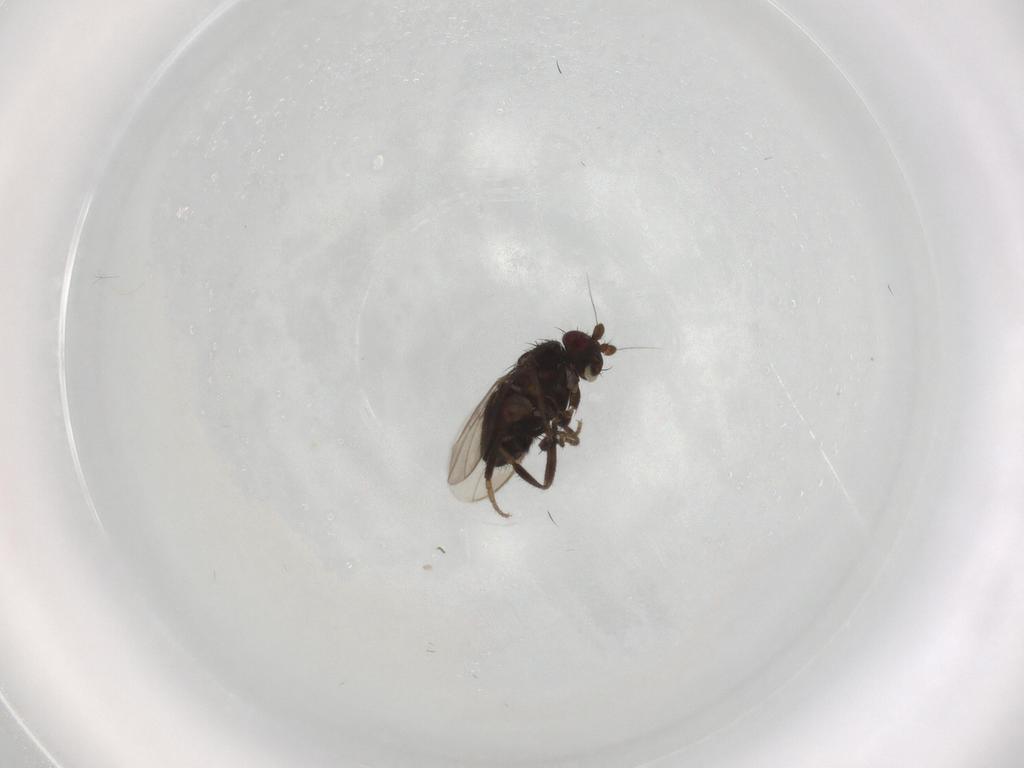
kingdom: Animalia
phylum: Arthropoda
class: Insecta
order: Diptera
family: Sphaeroceridae
